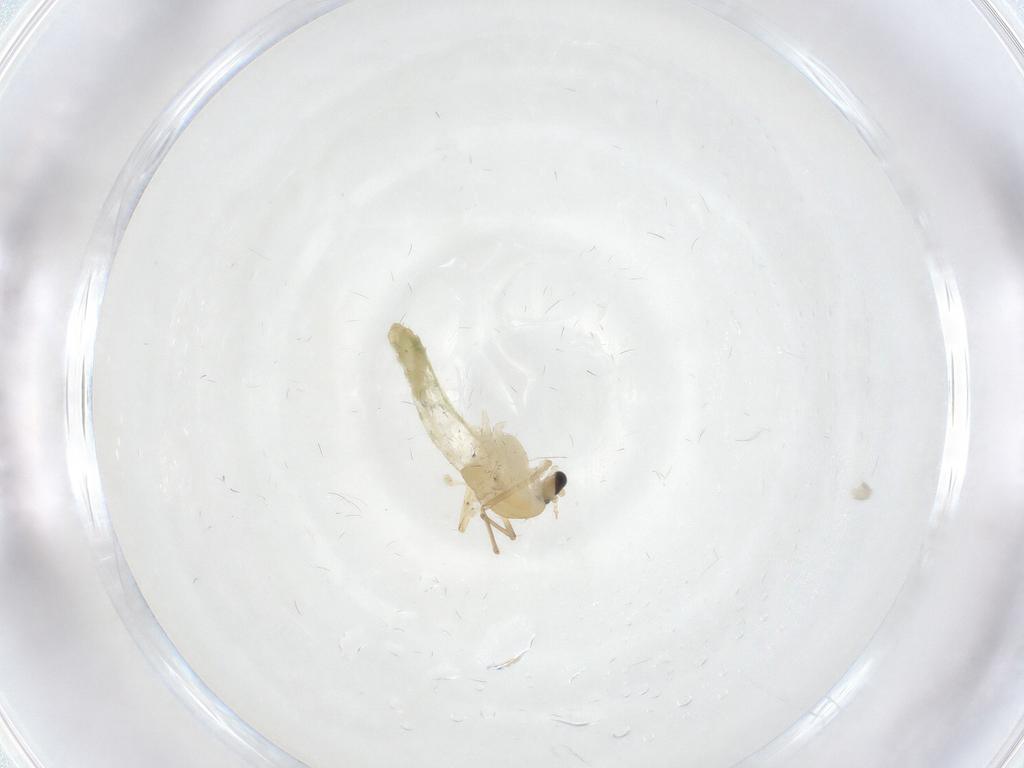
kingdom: Animalia
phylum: Arthropoda
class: Insecta
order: Diptera
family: Chironomidae
